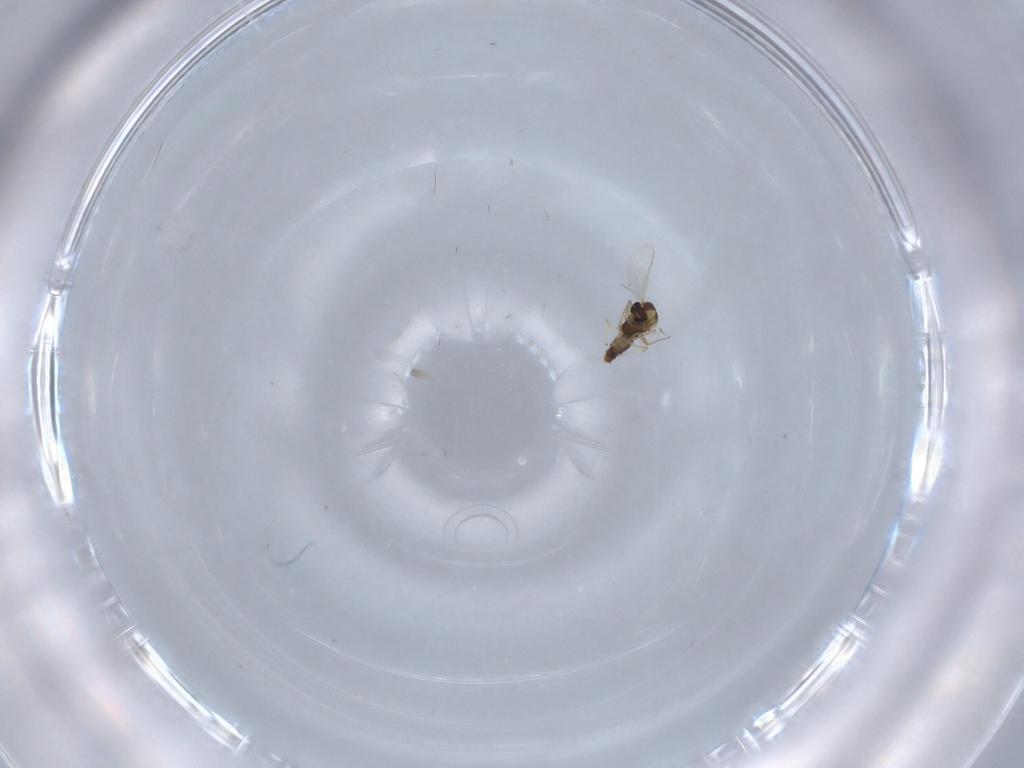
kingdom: Animalia
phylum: Arthropoda
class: Insecta
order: Diptera
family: Chironomidae
